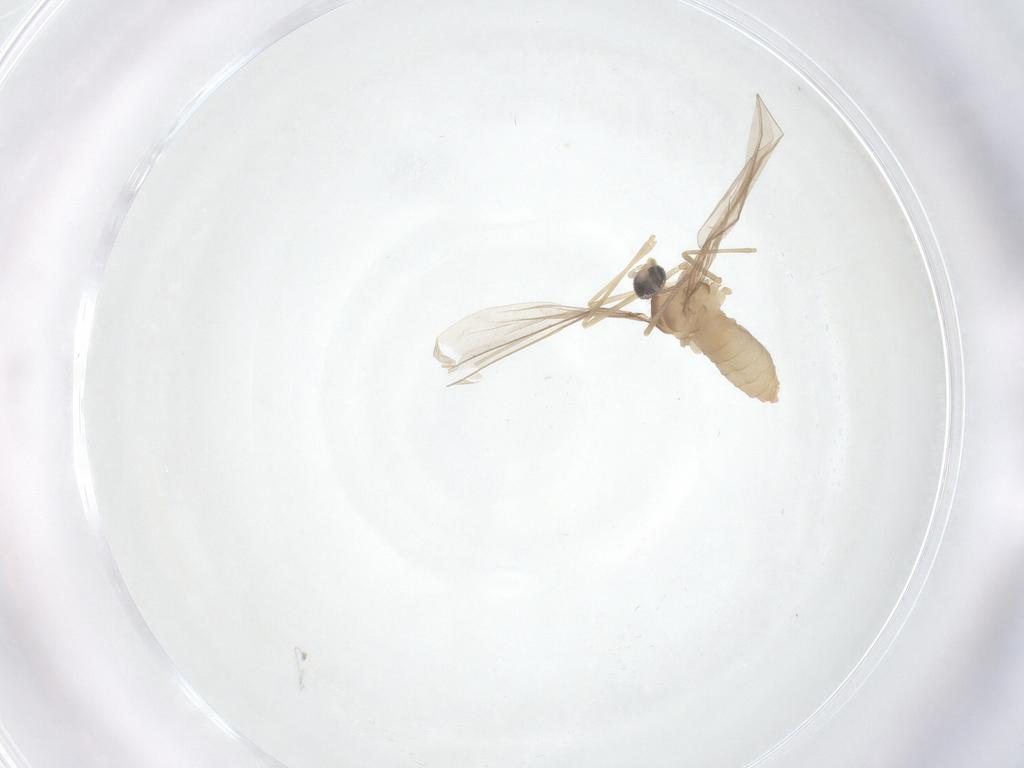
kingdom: Animalia
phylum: Arthropoda
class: Insecta
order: Diptera
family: Cecidomyiidae
